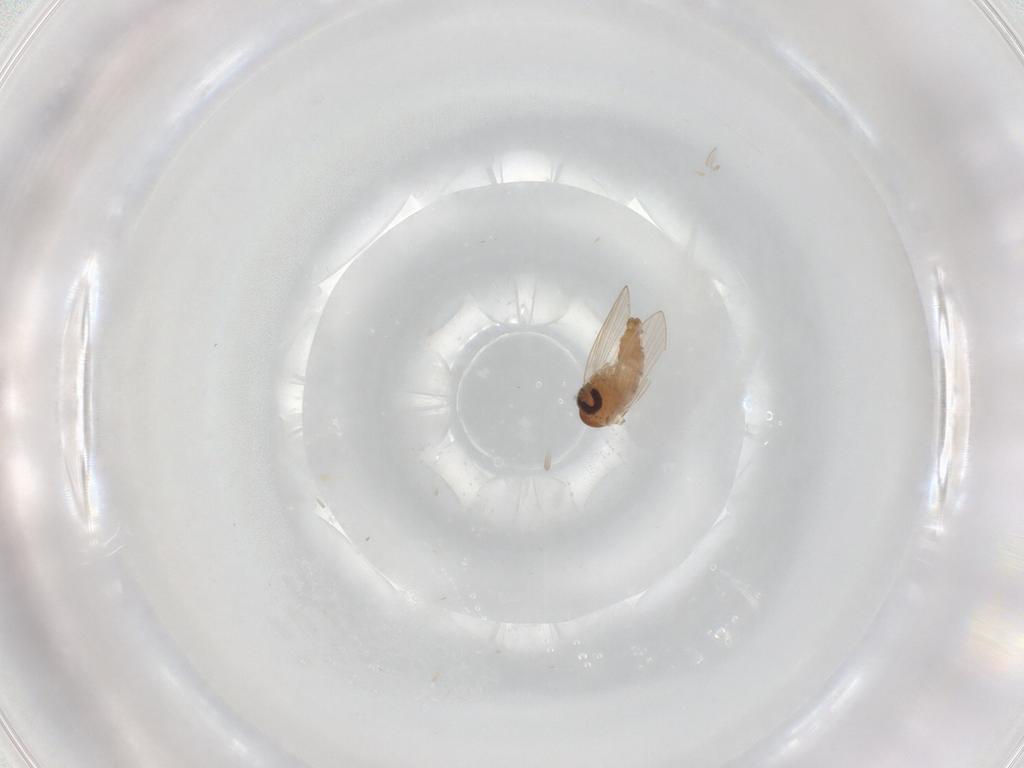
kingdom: Animalia
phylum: Arthropoda
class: Insecta
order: Diptera
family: Psychodidae
